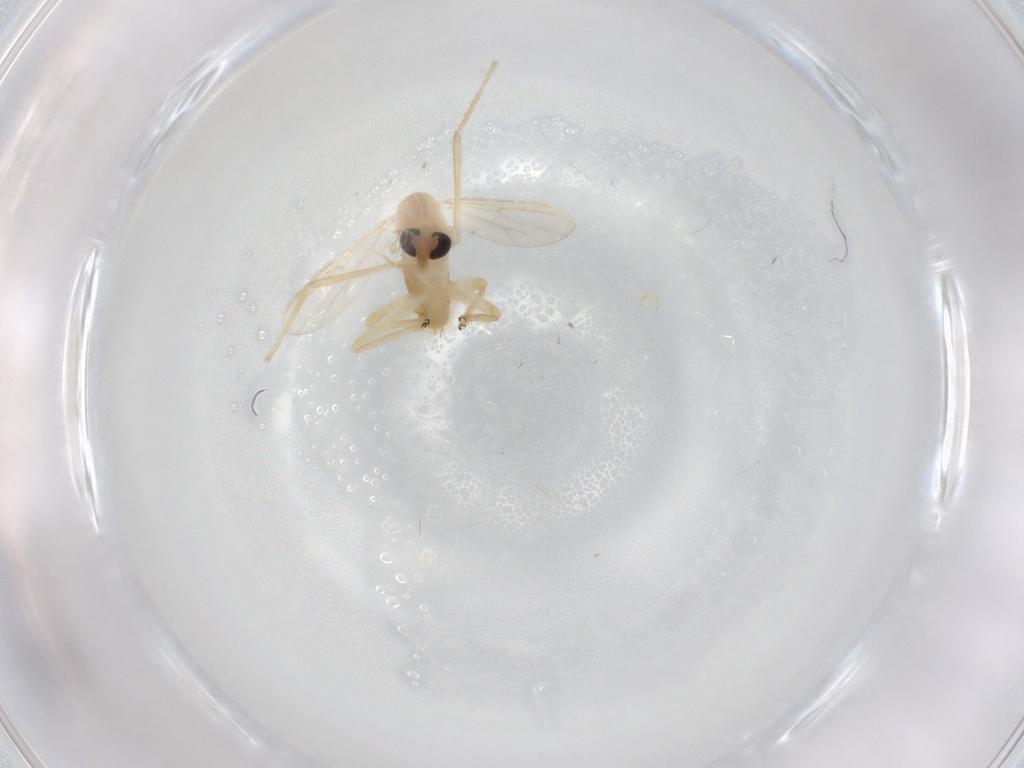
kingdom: Animalia
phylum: Arthropoda
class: Insecta
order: Diptera
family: Chironomidae
